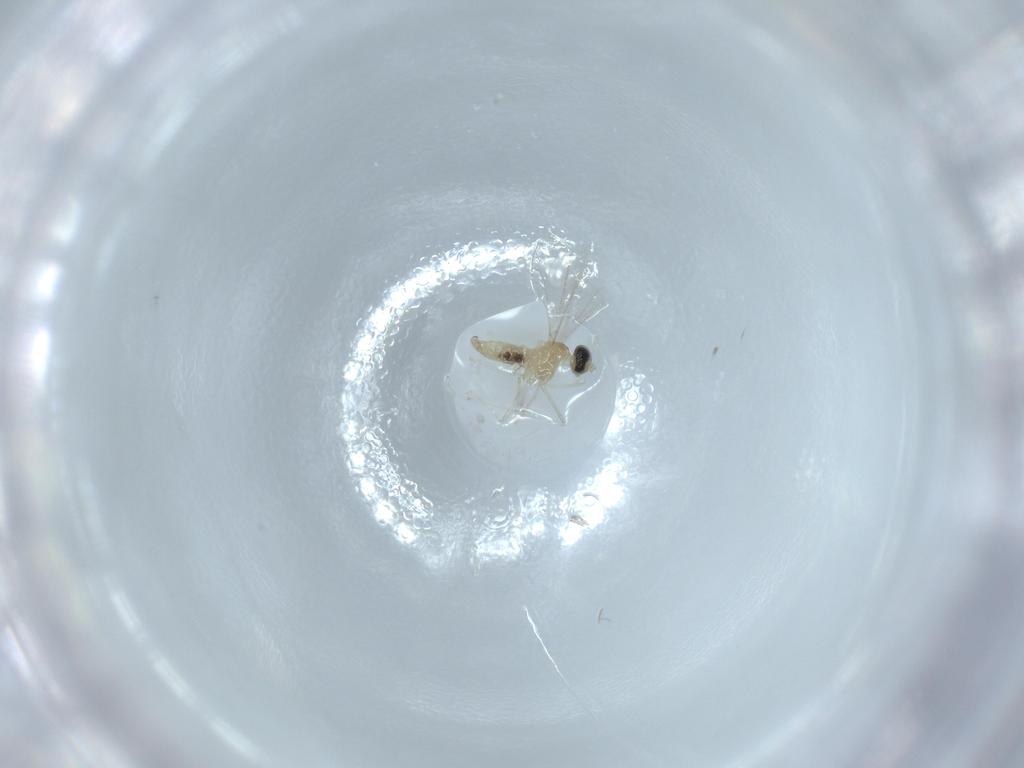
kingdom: Animalia
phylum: Arthropoda
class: Insecta
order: Diptera
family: Cecidomyiidae
